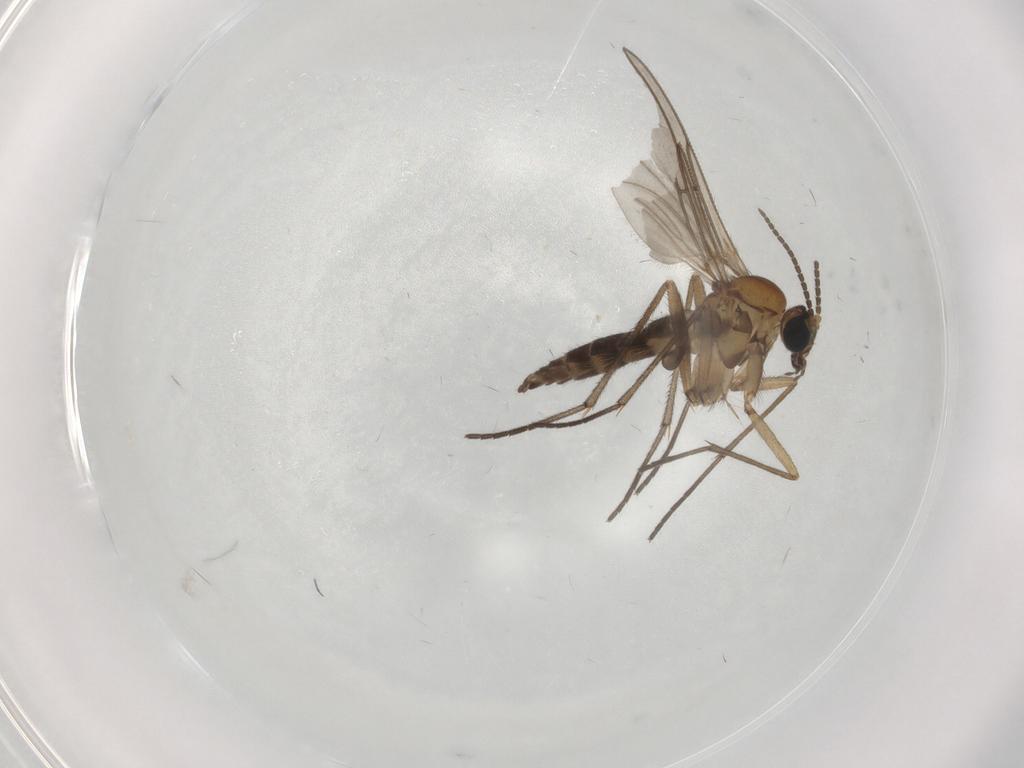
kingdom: Animalia
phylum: Arthropoda
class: Insecta
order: Diptera
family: Sciaridae
